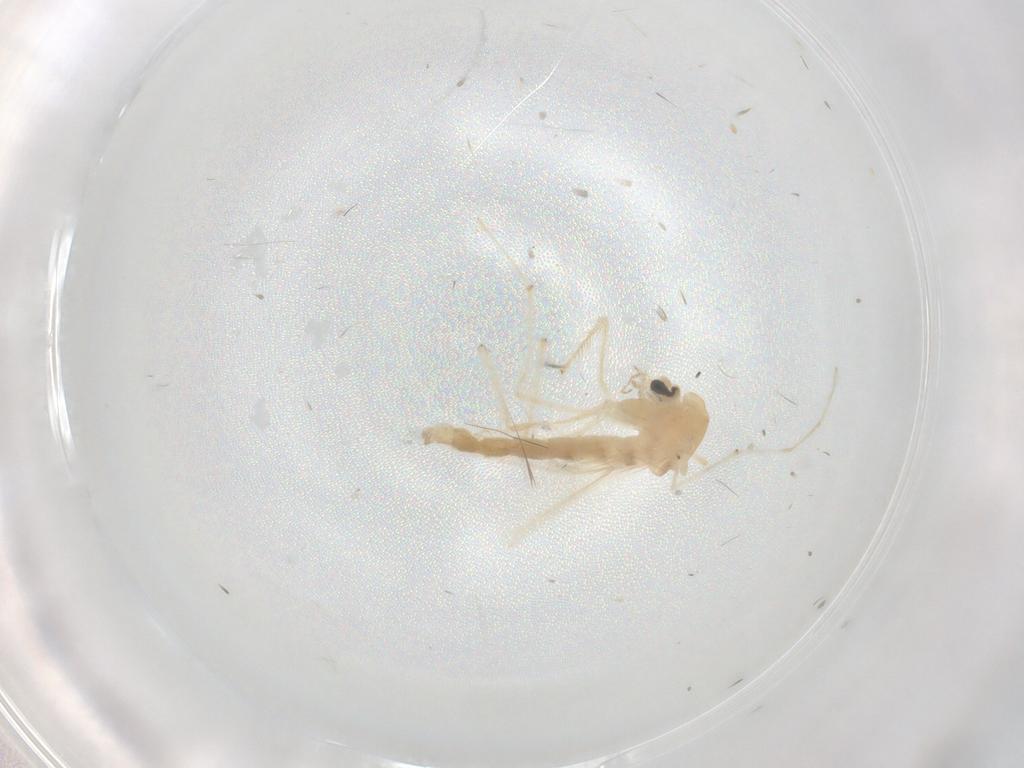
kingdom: Animalia
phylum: Arthropoda
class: Insecta
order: Diptera
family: Chironomidae
